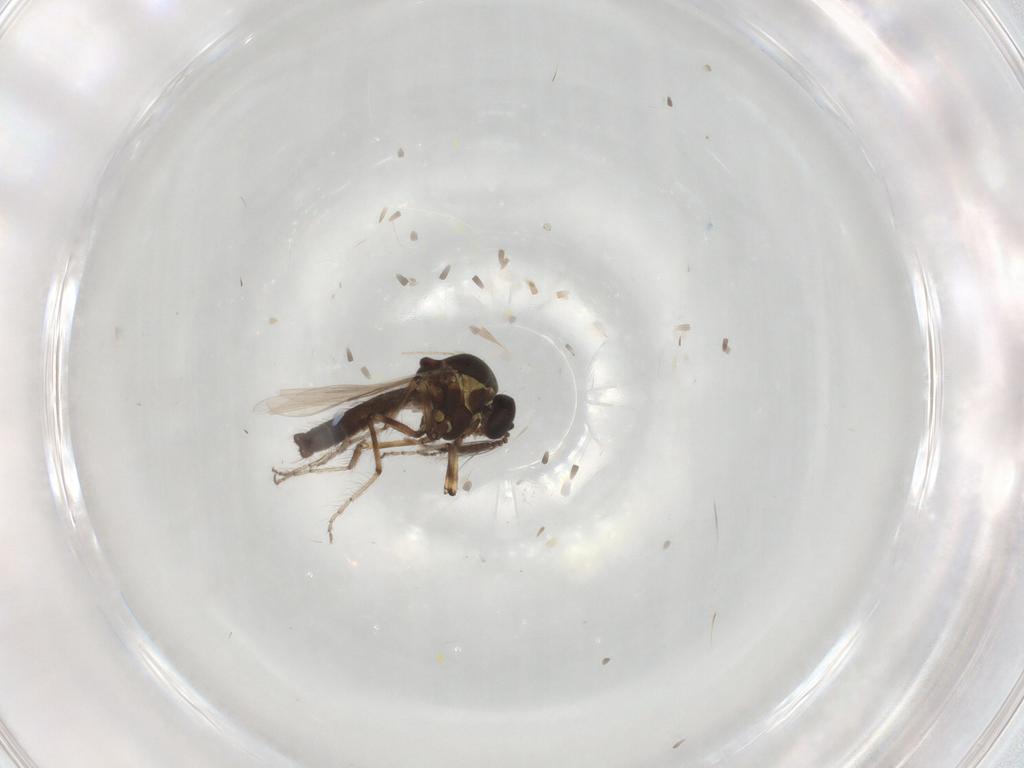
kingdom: Animalia
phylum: Arthropoda
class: Insecta
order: Diptera
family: Ceratopogonidae
